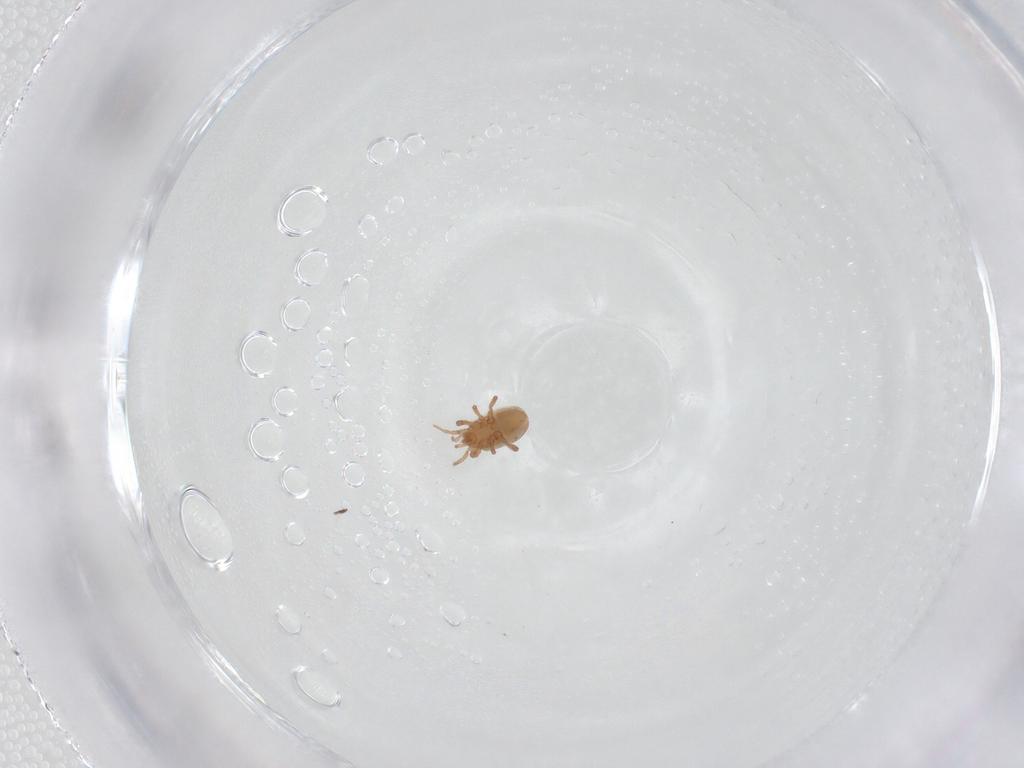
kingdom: Animalia
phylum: Arthropoda
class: Arachnida
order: Mesostigmata
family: Ologamasidae
